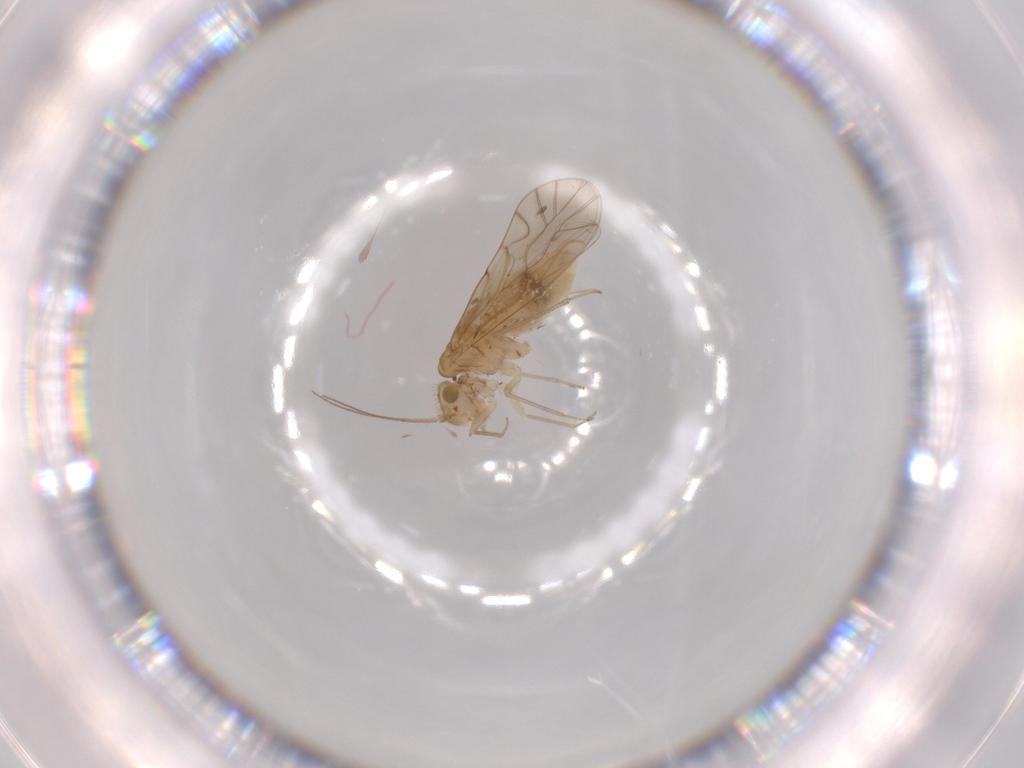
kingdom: Animalia
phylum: Arthropoda
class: Insecta
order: Psocodea
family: Lachesillidae
